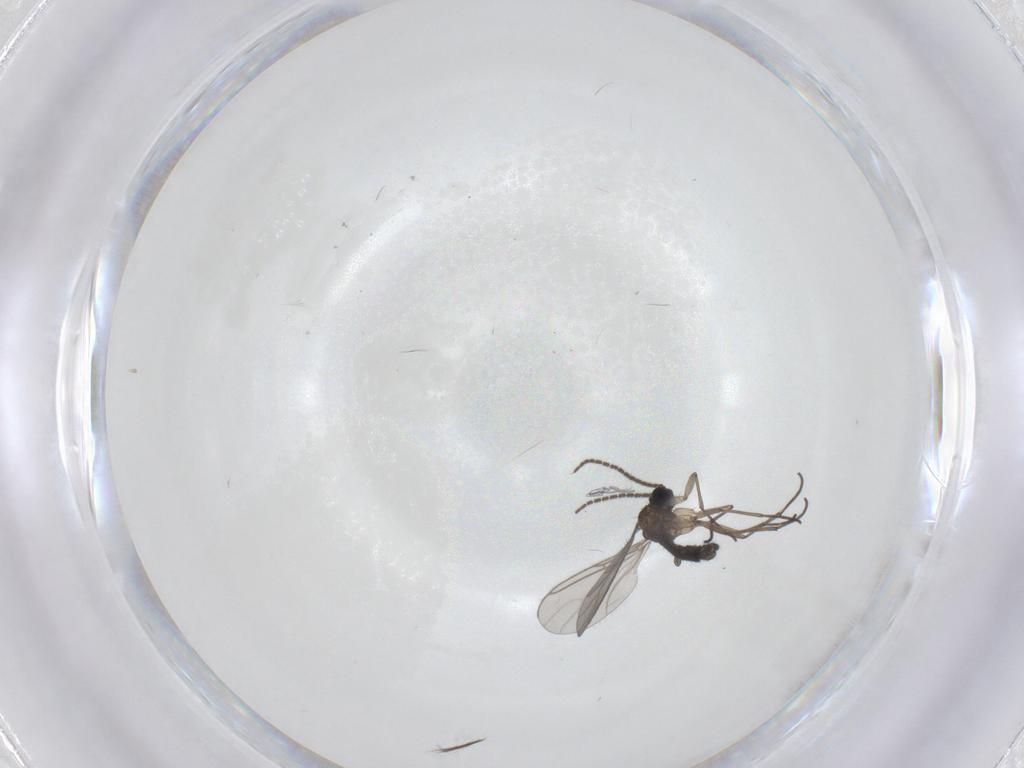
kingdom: Animalia
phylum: Arthropoda
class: Insecta
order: Diptera
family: Sciaridae
